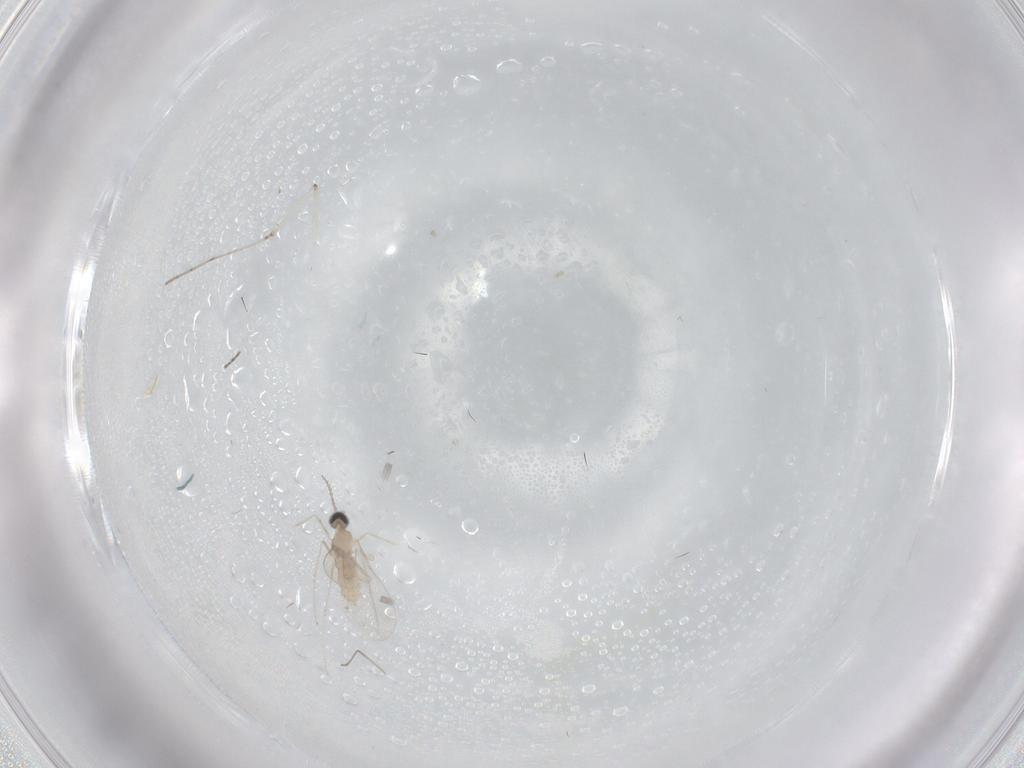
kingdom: Animalia
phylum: Arthropoda
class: Insecta
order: Diptera
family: Cecidomyiidae
